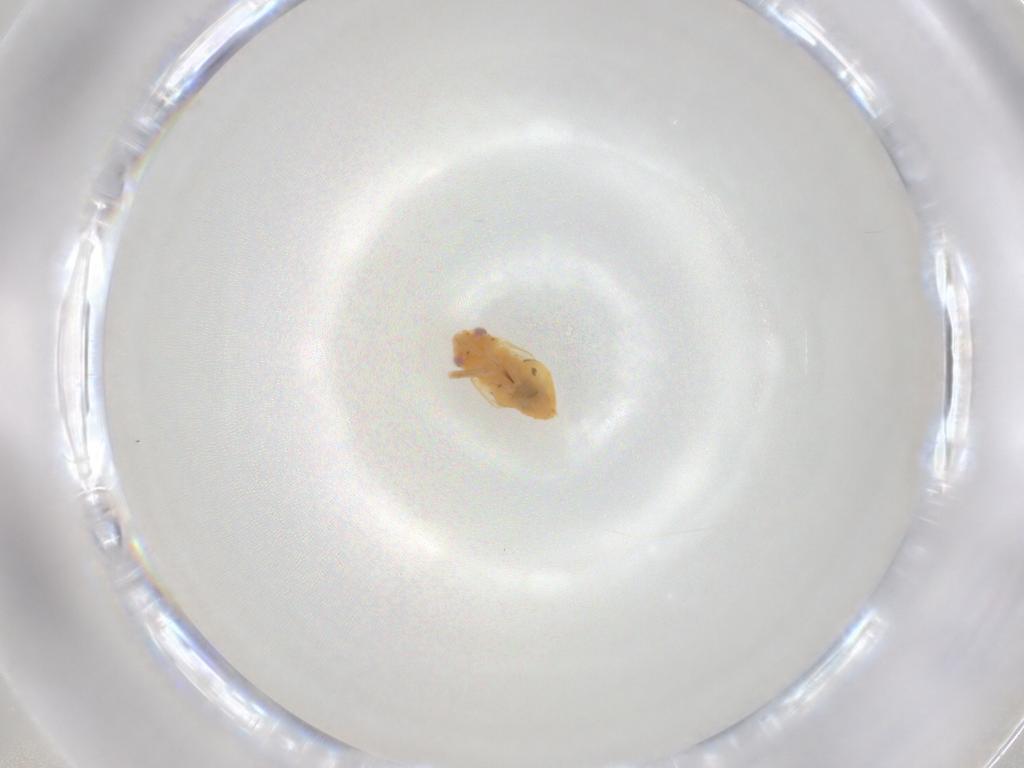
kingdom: Animalia
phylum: Arthropoda
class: Insecta
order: Hemiptera
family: Miridae
